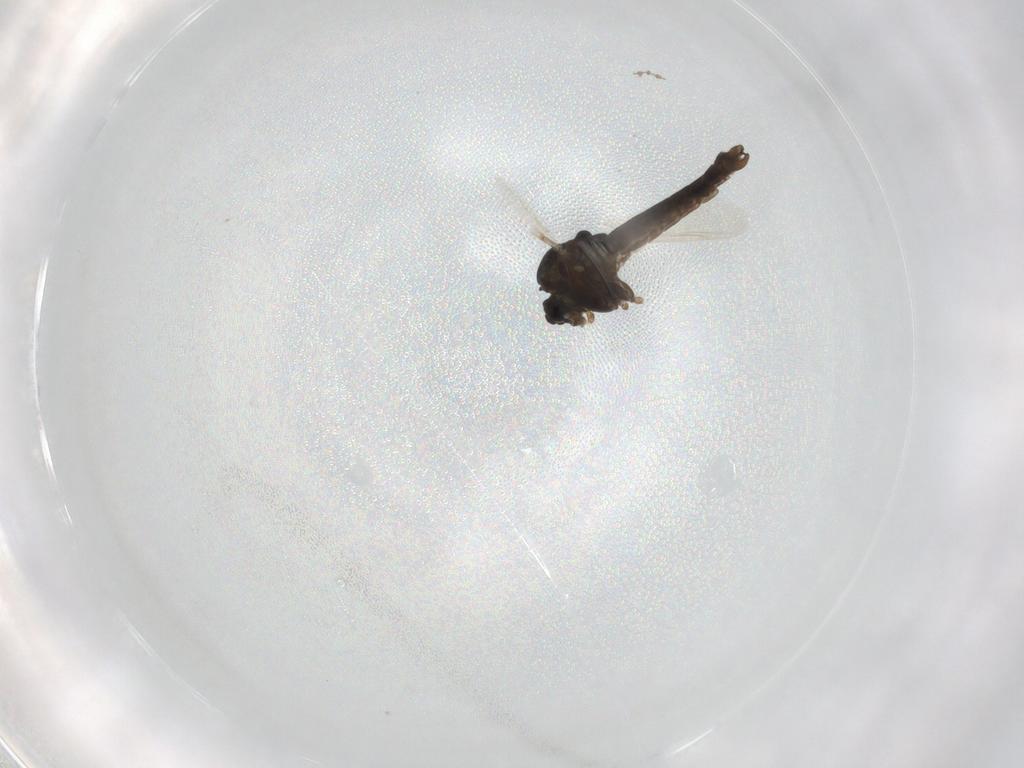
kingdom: Animalia
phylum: Arthropoda
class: Insecta
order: Diptera
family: Chironomidae
